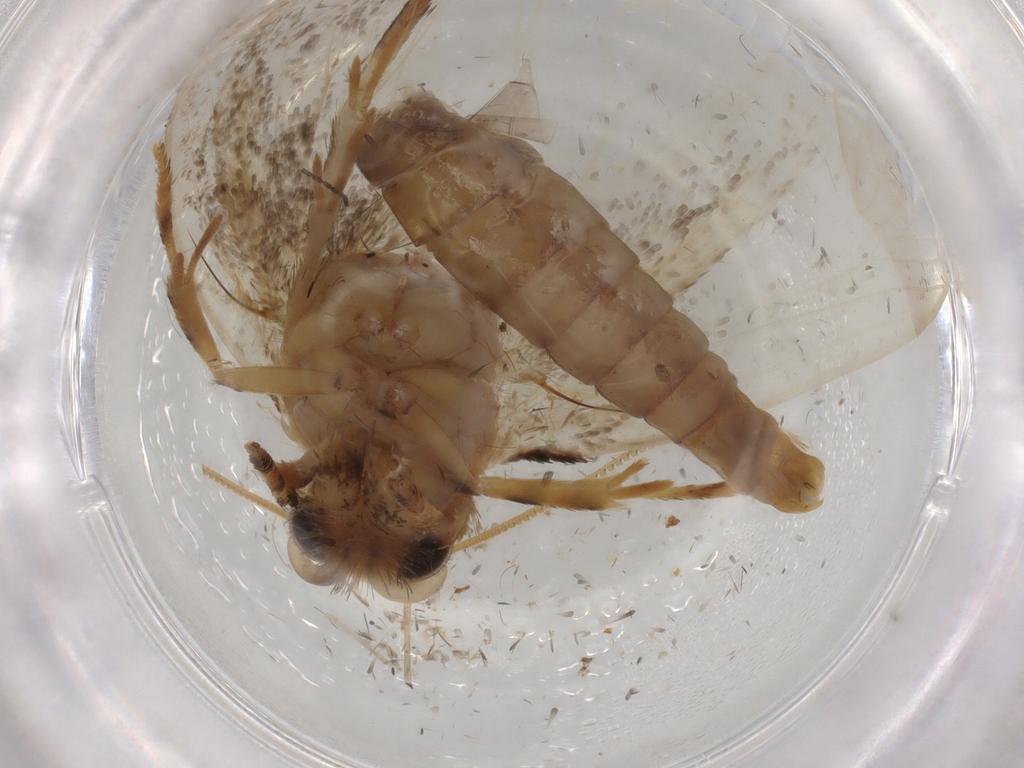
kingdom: Animalia
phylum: Arthropoda
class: Insecta
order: Lepidoptera
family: Tineidae
